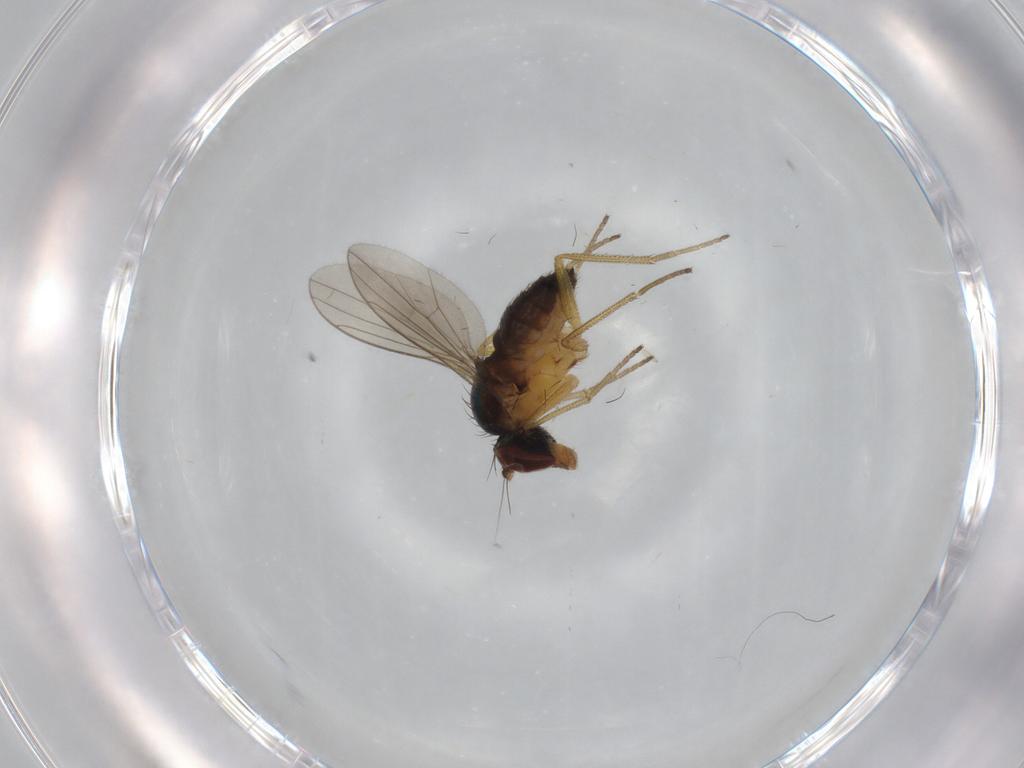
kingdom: Animalia
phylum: Arthropoda
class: Insecta
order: Diptera
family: Dolichopodidae
